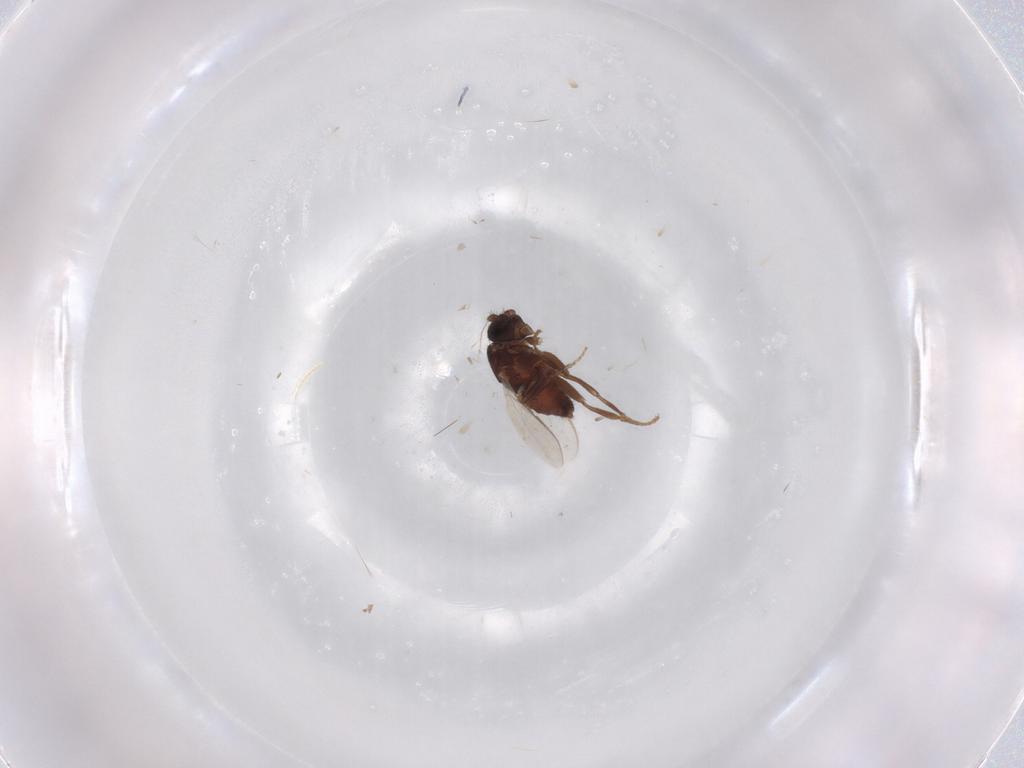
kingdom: Animalia
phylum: Arthropoda
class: Insecta
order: Diptera
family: Sphaeroceridae
